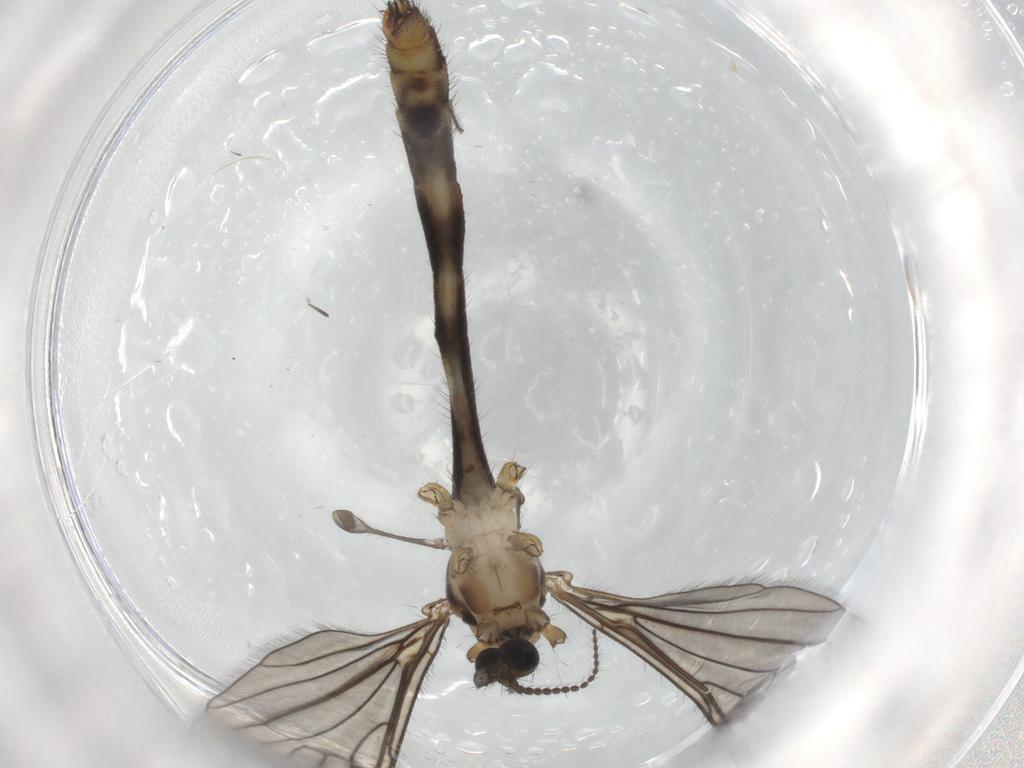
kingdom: Animalia
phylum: Arthropoda
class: Insecta
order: Diptera
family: Limoniidae
